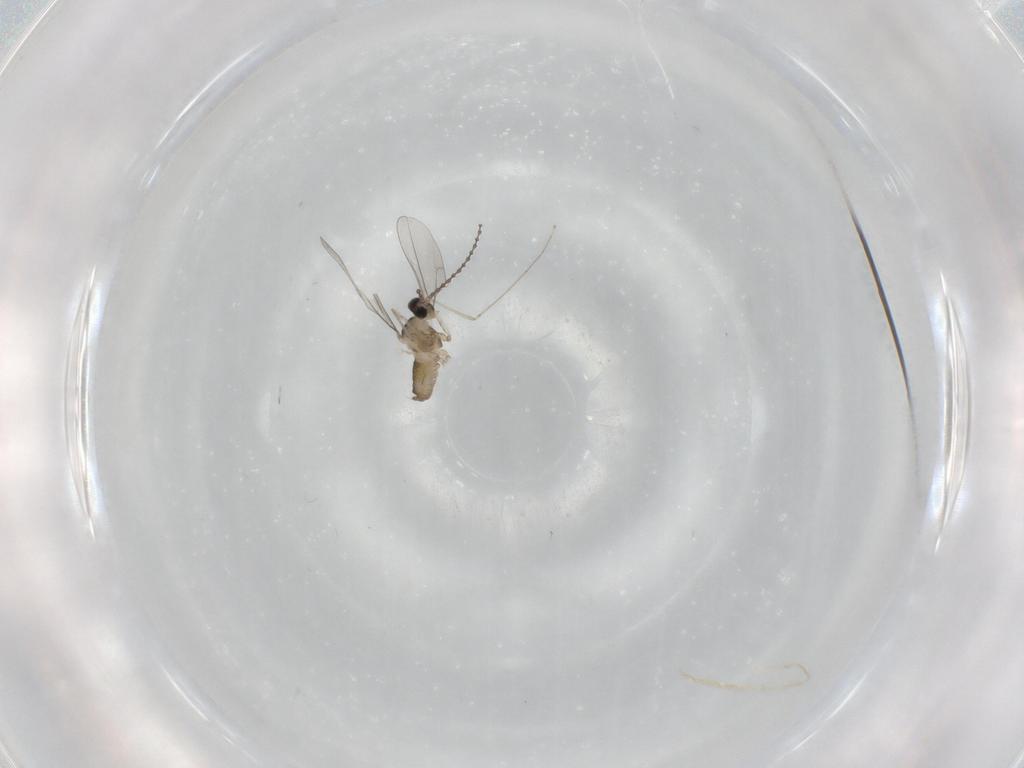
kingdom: Animalia
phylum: Arthropoda
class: Insecta
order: Diptera
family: Cecidomyiidae
